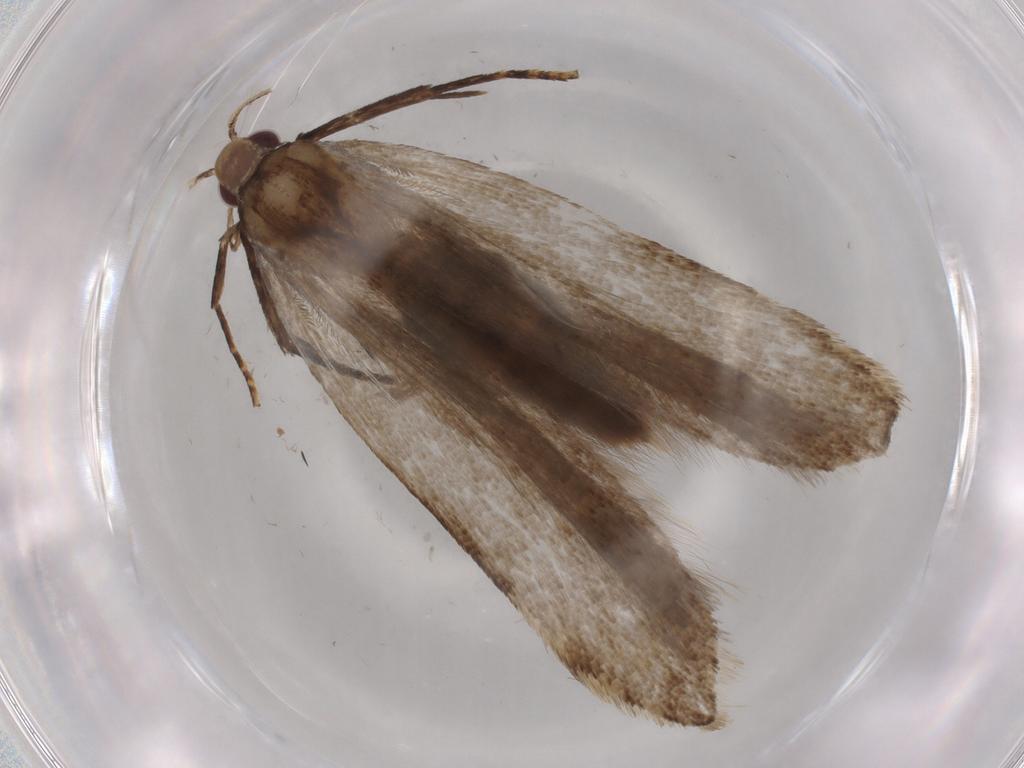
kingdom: Animalia
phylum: Arthropoda
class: Insecta
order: Lepidoptera
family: Gelechiidae
